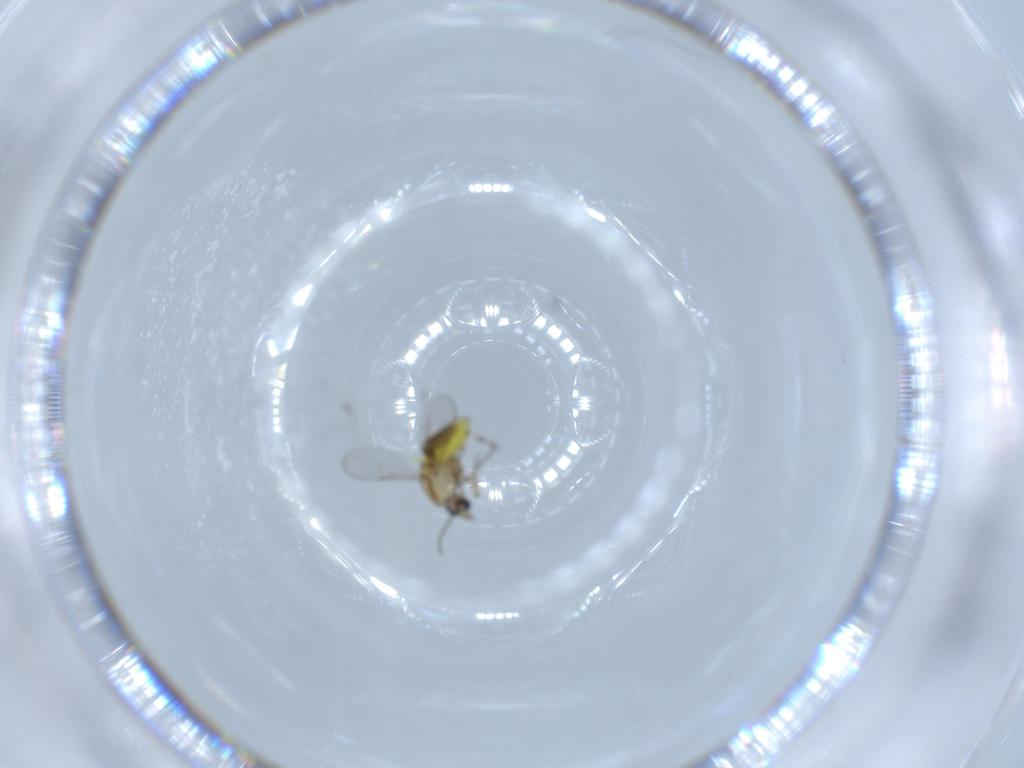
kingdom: Animalia
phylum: Arthropoda
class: Insecta
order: Diptera
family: Ceratopogonidae
